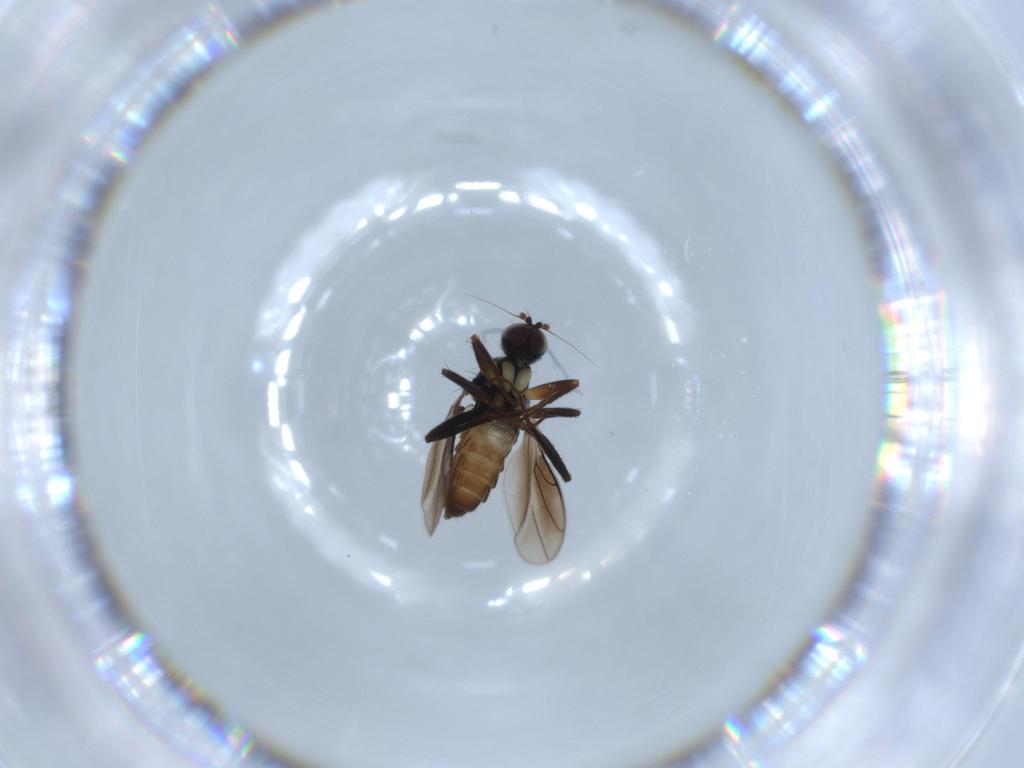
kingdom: Animalia
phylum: Arthropoda
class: Insecta
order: Diptera
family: Hybotidae
